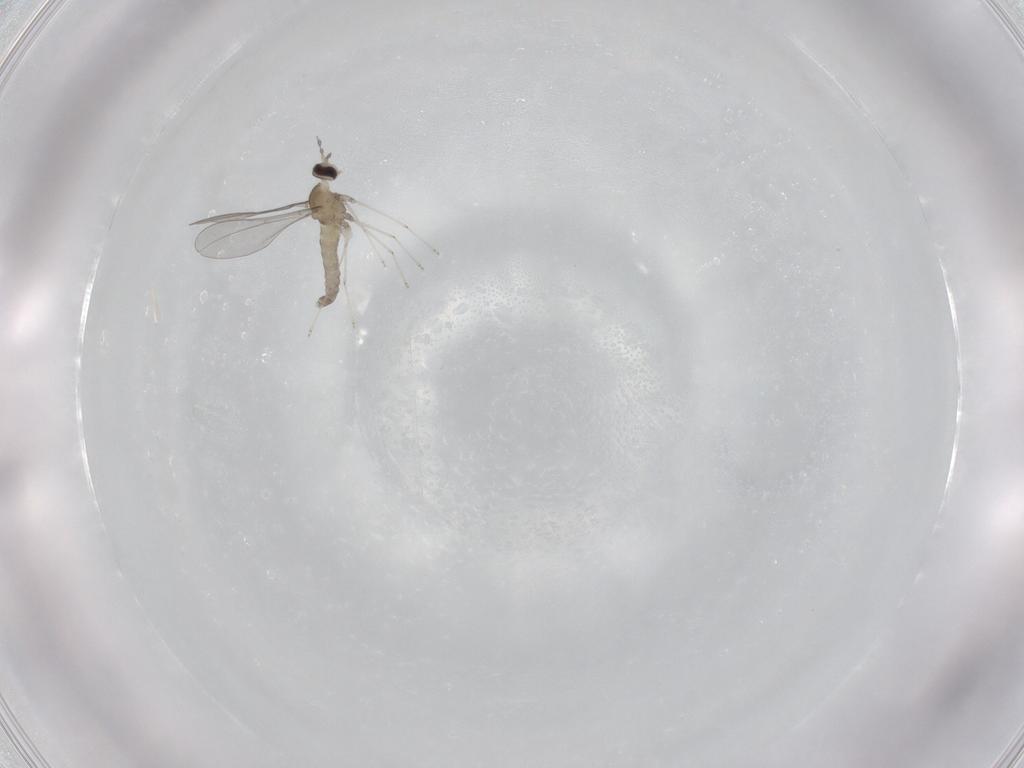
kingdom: Animalia
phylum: Arthropoda
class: Insecta
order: Diptera
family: Cecidomyiidae
